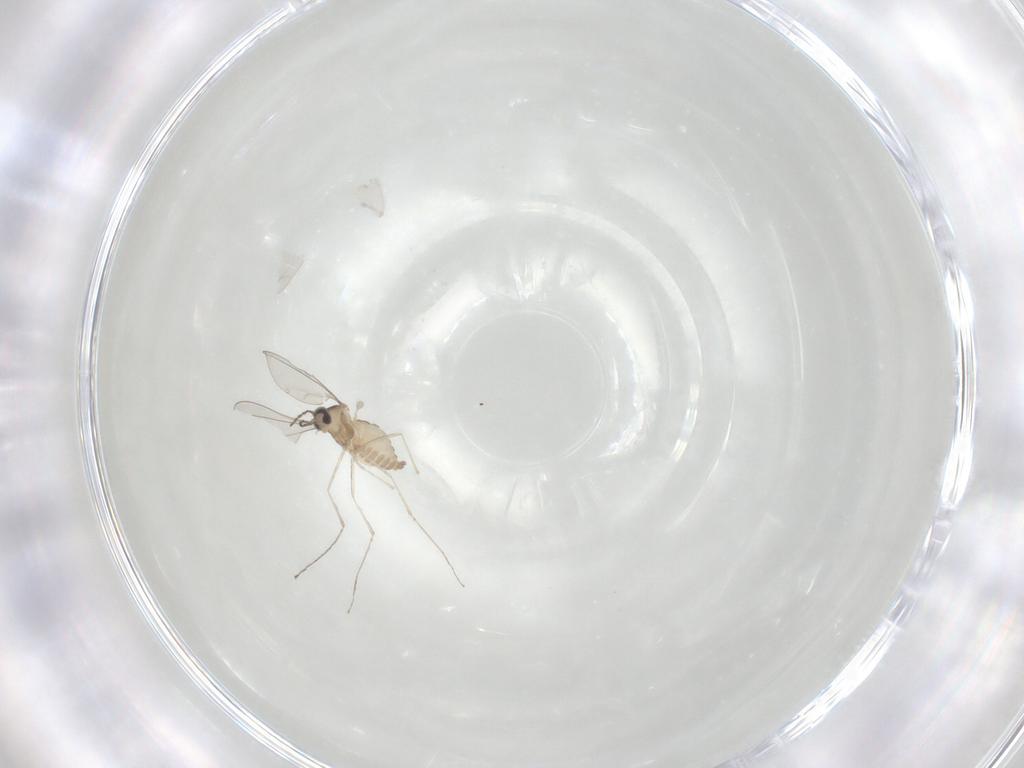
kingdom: Animalia
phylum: Arthropoda
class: Insecta
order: Diptera
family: Cecidomyiidae
